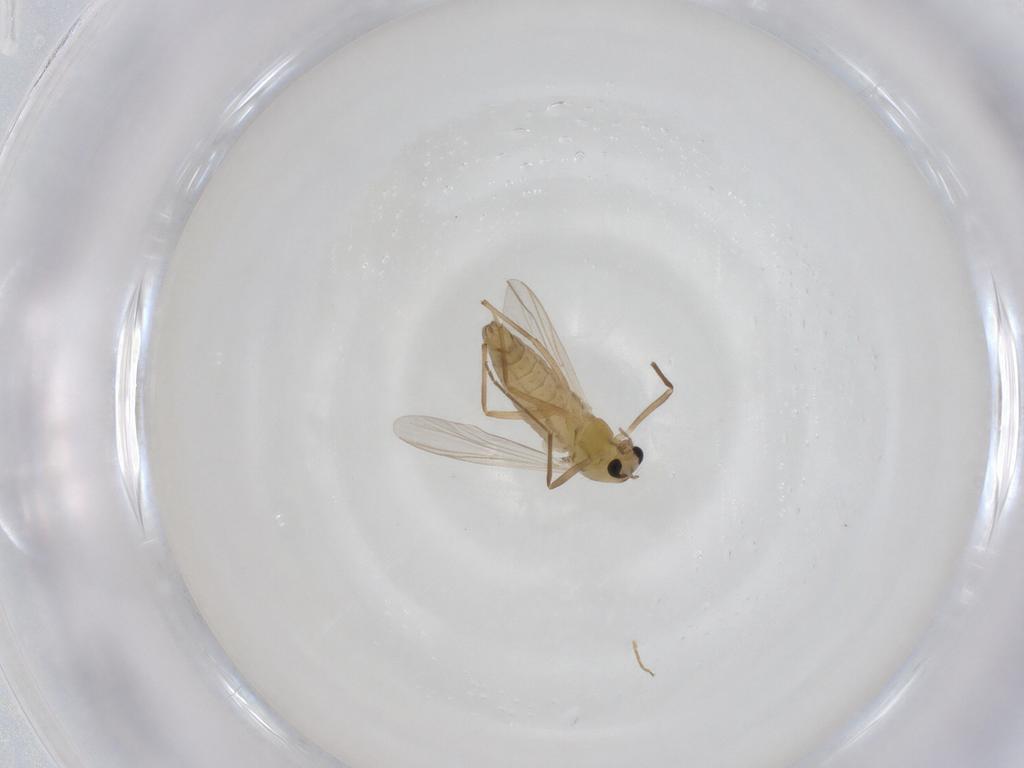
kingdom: Animalia
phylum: Arthropoda
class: Insecta
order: Diptera
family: Chironomidae
